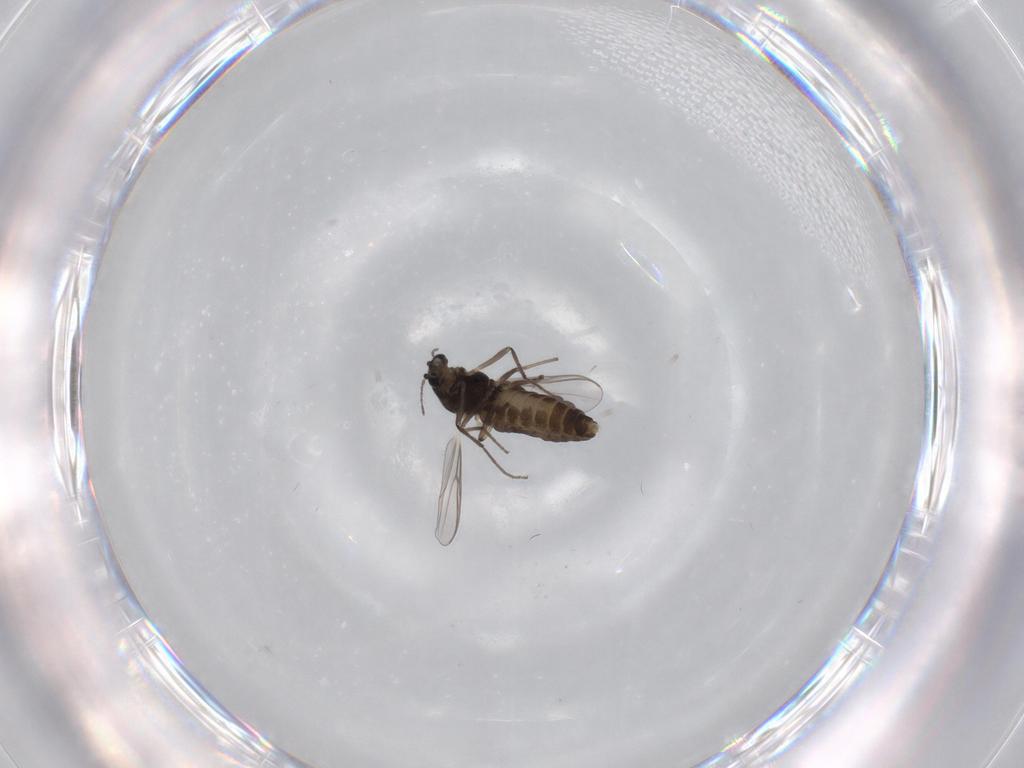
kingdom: Animalia
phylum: Arthropoda
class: Insecta
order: Diptera
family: Chironomidae
